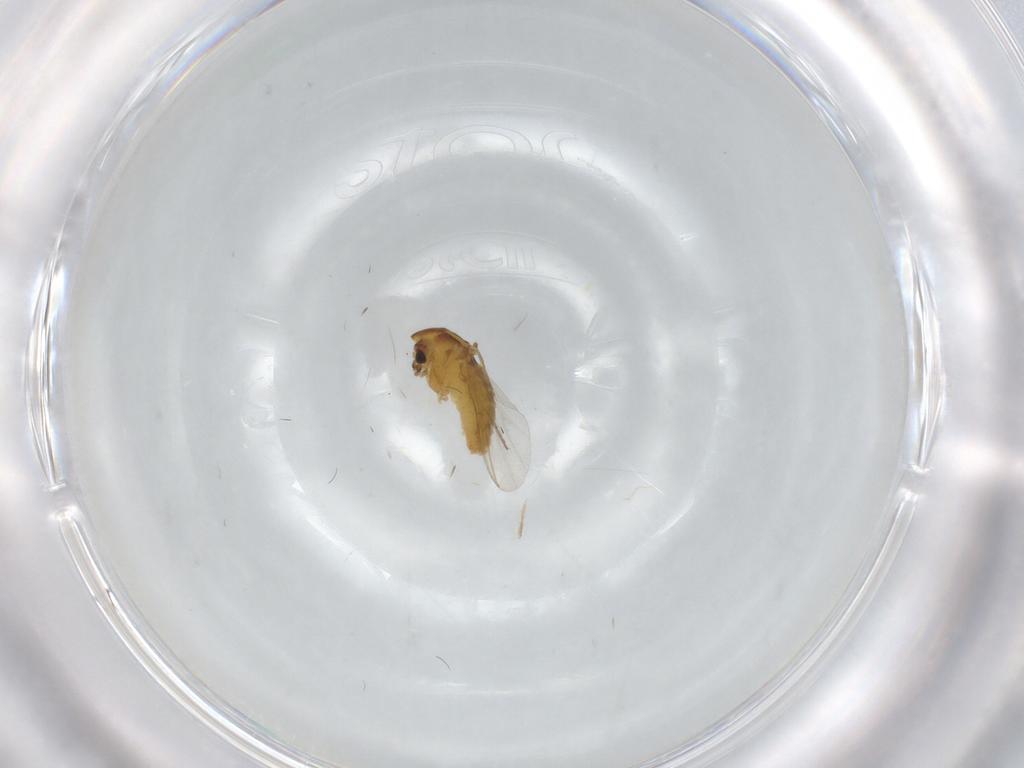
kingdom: Animalia
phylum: Arthropoda
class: Insecta
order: Diptera
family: Chironomidae
